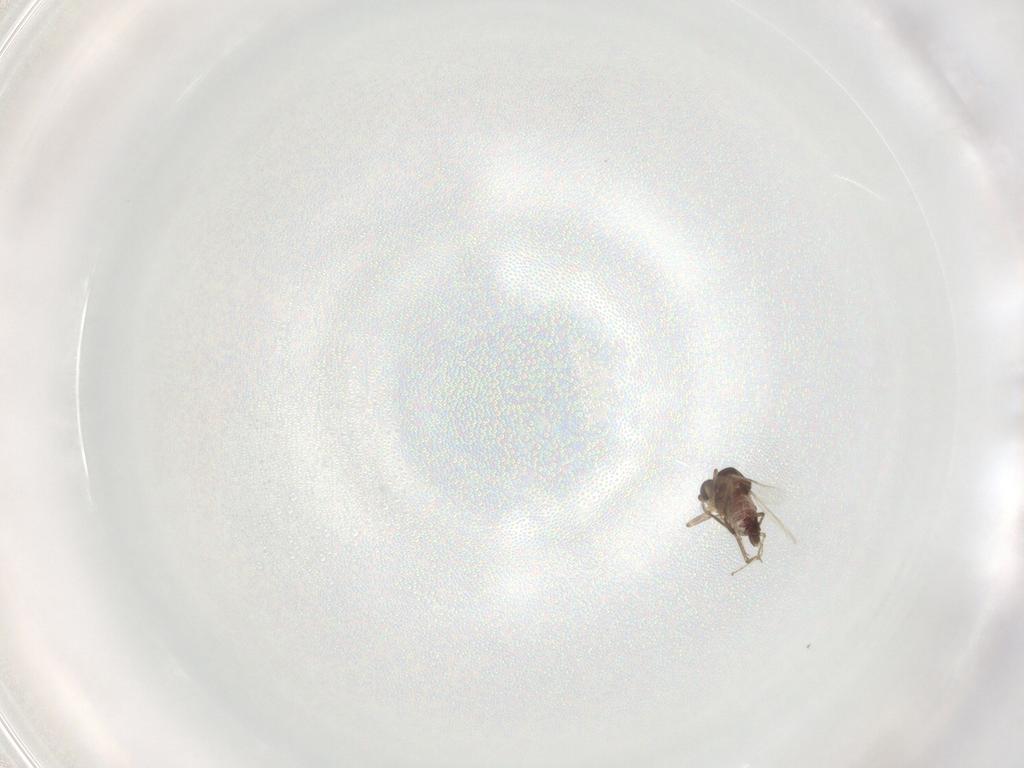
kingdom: Animalia
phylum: Arthropoda
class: Insecta
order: Diptera
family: Ceratopogonidae
